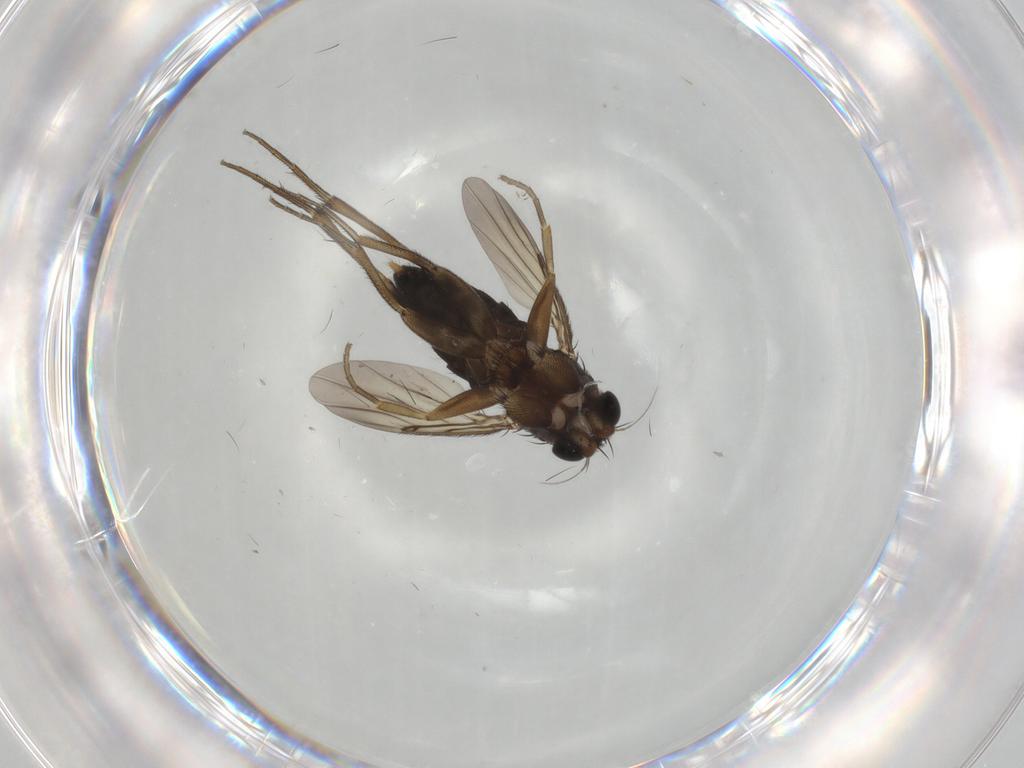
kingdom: Animalia
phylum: Arthropoda
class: Insecta
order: Diptera
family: Phoridae
